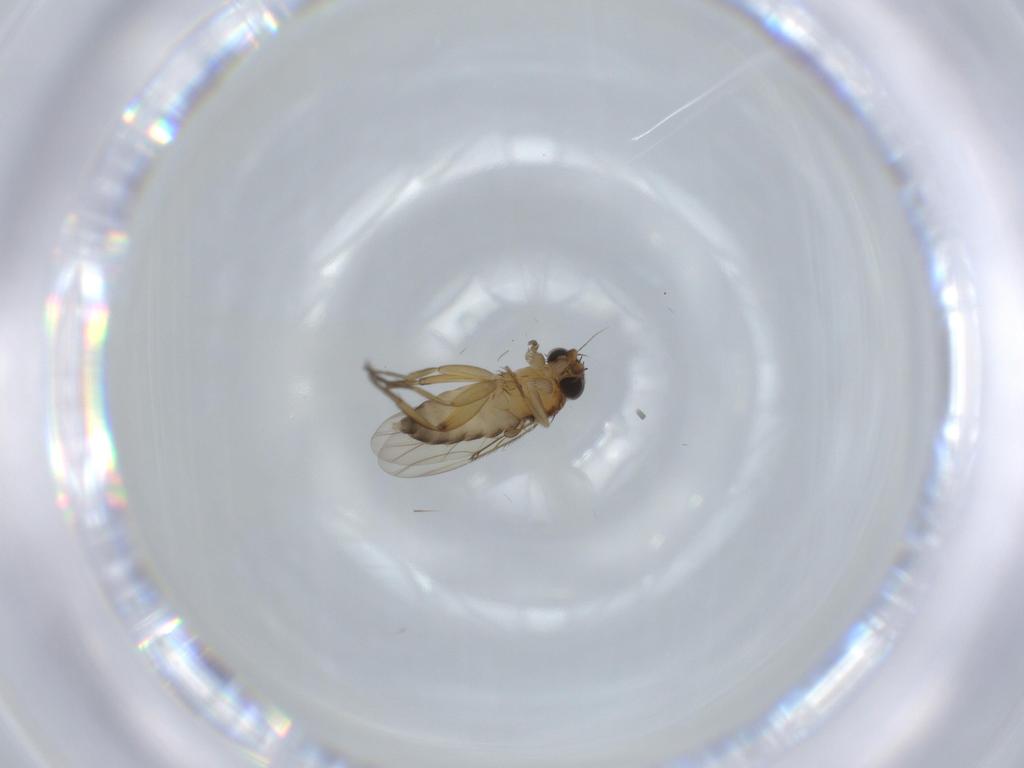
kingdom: Animalia
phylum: Arthropoda
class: Insecta
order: Diptera
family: Phoridae
